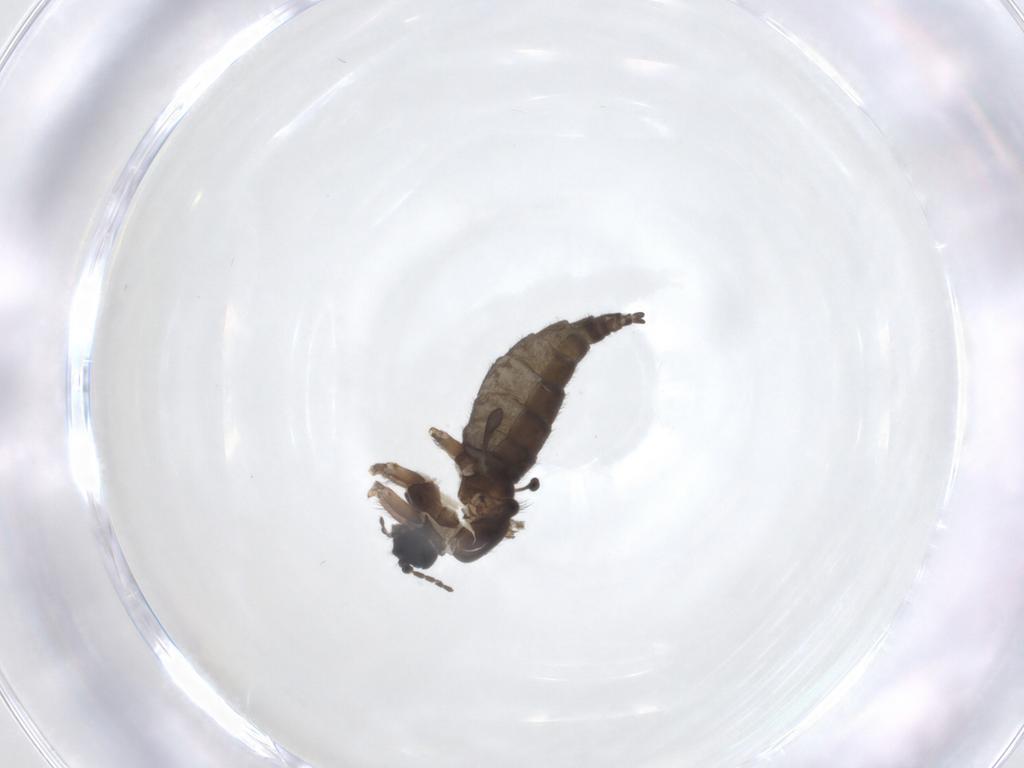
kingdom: Animalia
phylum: Arthropoda
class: Insecta
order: Diptera
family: Sciaridae
